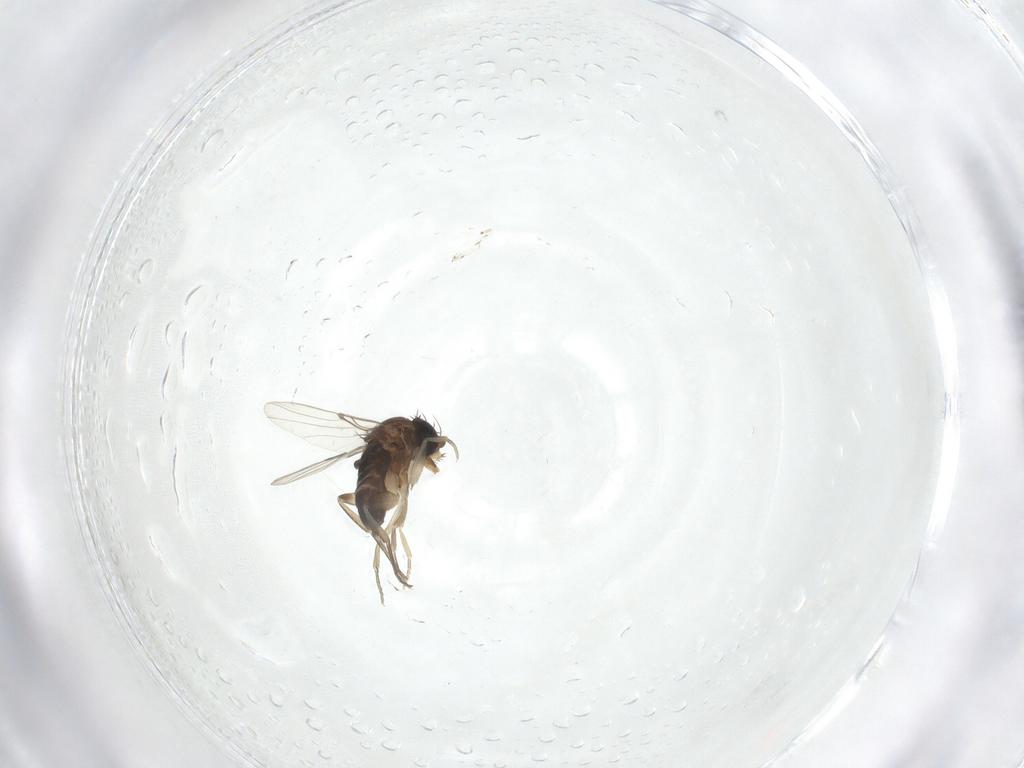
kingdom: Animalia
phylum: Arthropoda
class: Insecta
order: Diptera
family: Phoridae
